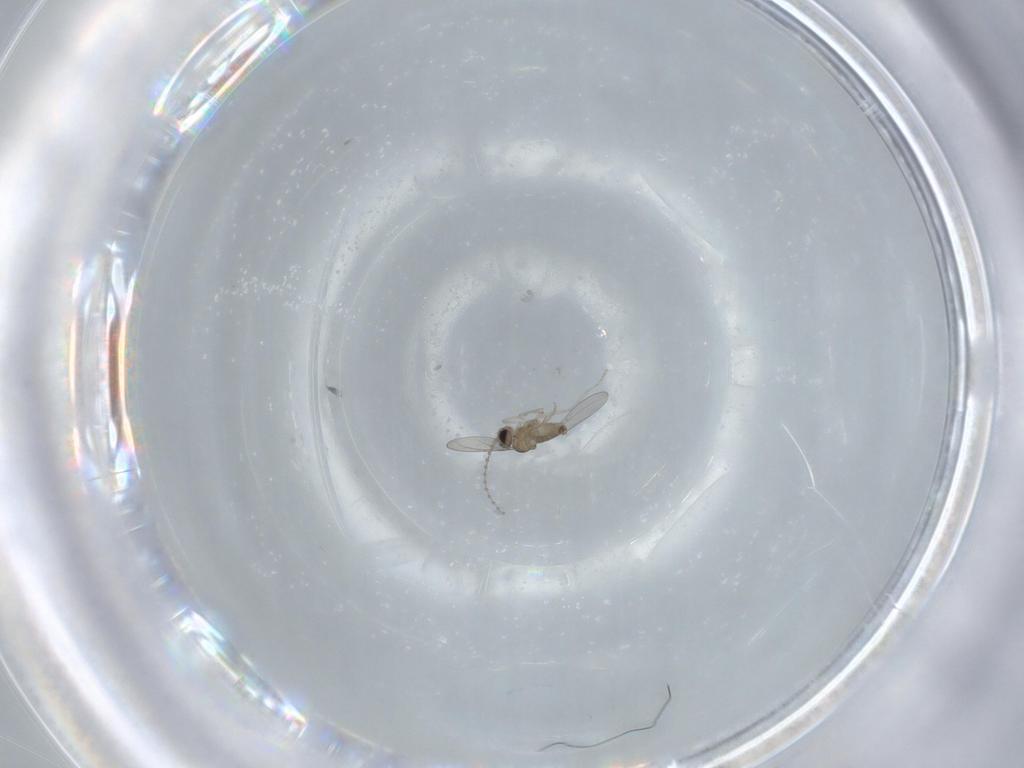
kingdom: Animalia
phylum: Arthropoda
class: Insecta
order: Diptera
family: Cecidomyiidae
